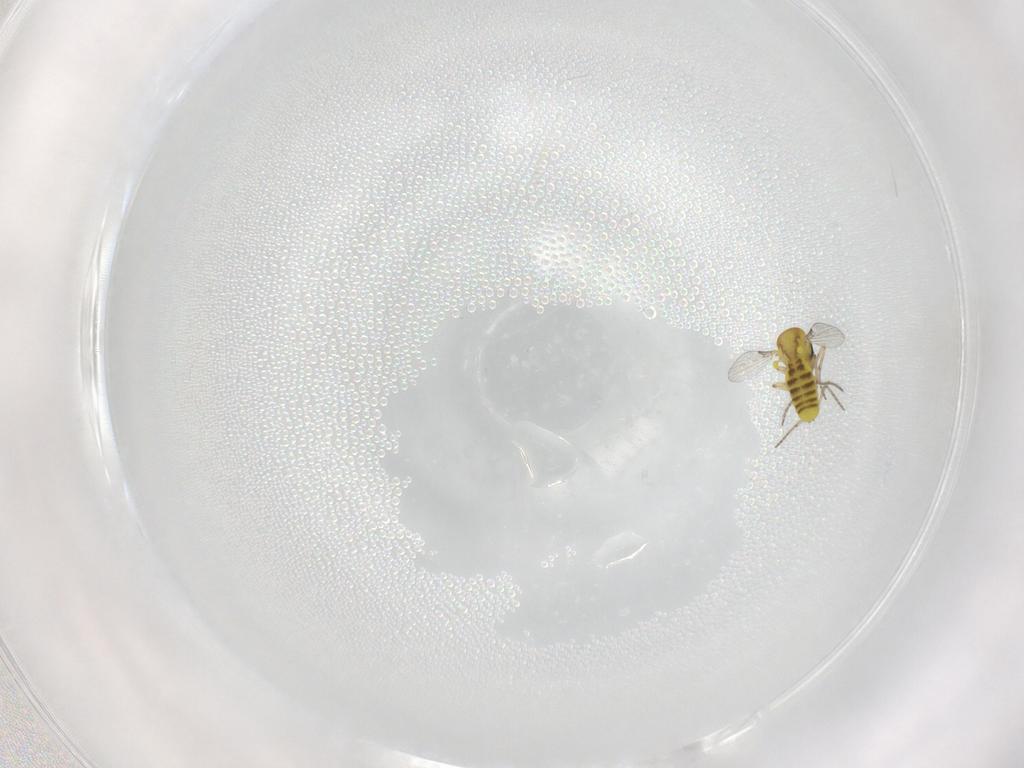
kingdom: Animalia
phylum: Arthropoda
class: Insecta
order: Diptera
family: Ceratopogonidae
